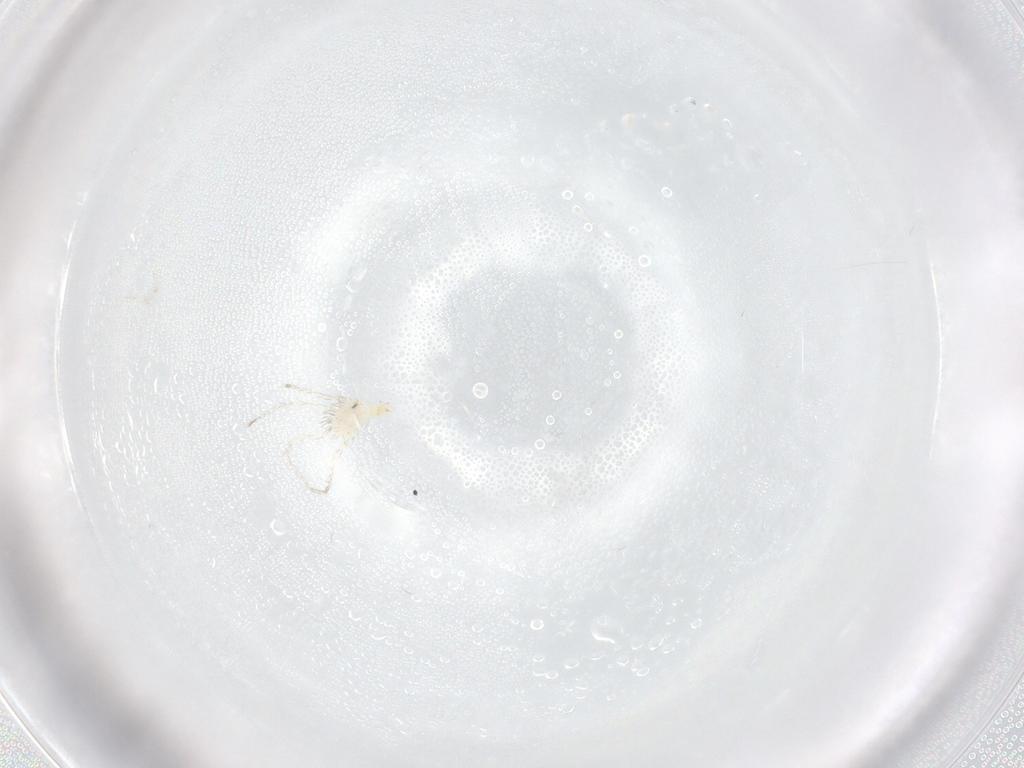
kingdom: Animalia
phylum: Arthropoda
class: Arachnida
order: Trombidiformes
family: Erythraeidae
